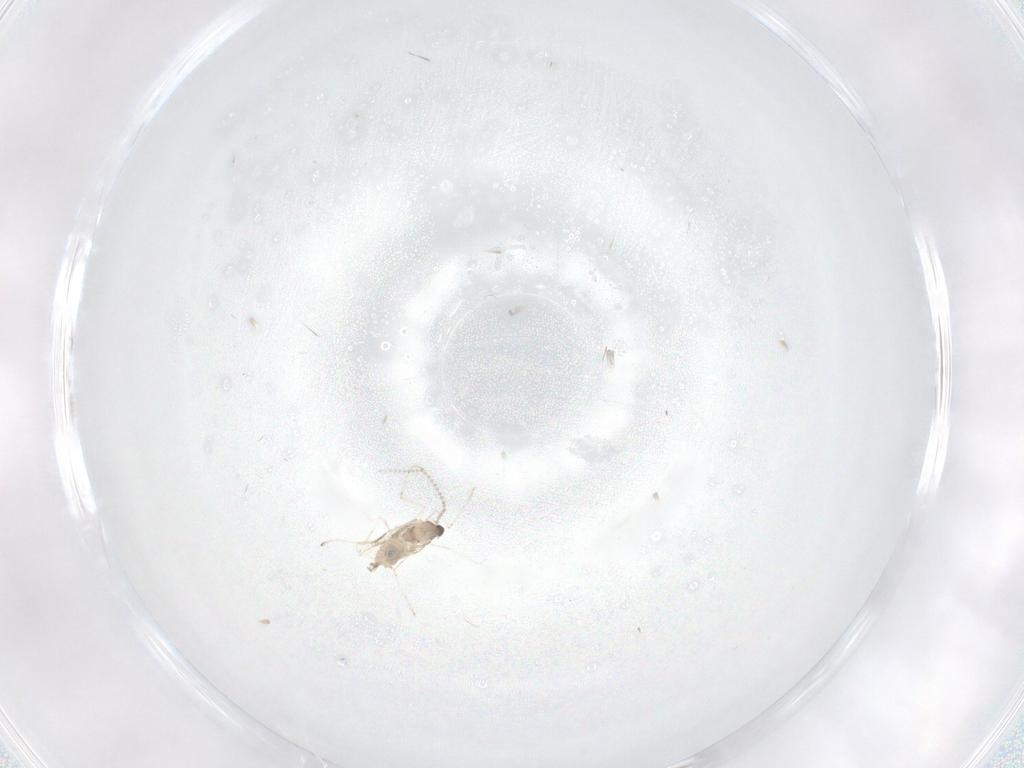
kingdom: Animalia
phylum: Arthropoda
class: Insecta
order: Diptera
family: Cecidomyiidae
